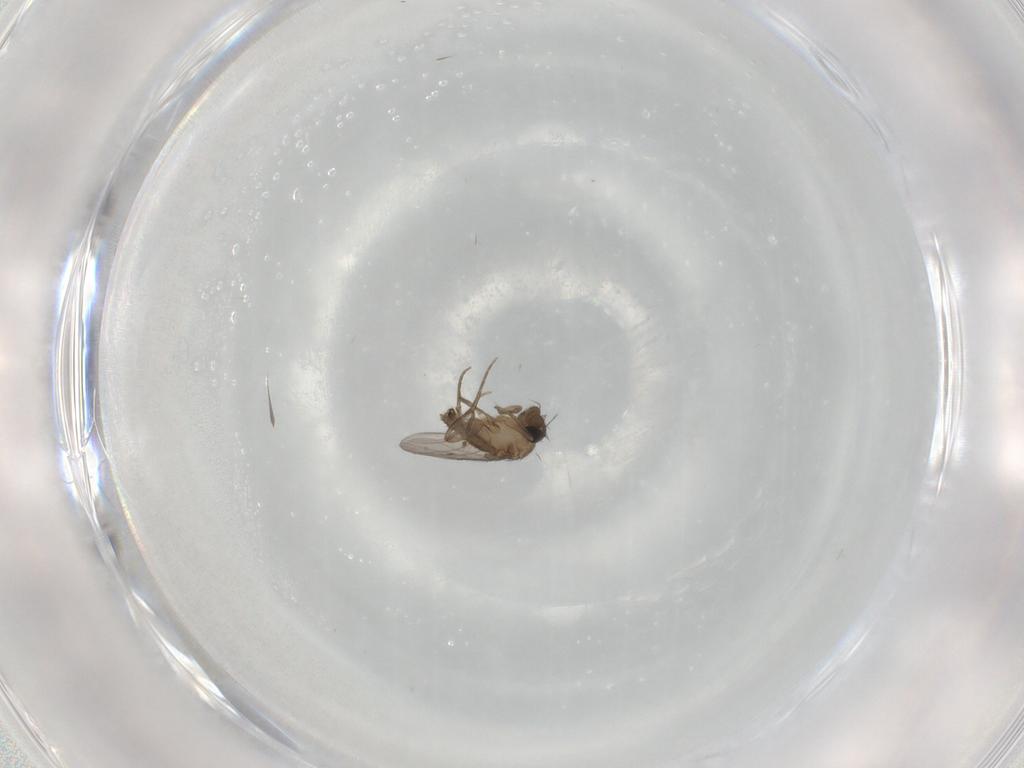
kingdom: Animalia
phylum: Arthropoda
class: Insecta
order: Diptera
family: Phoridae
